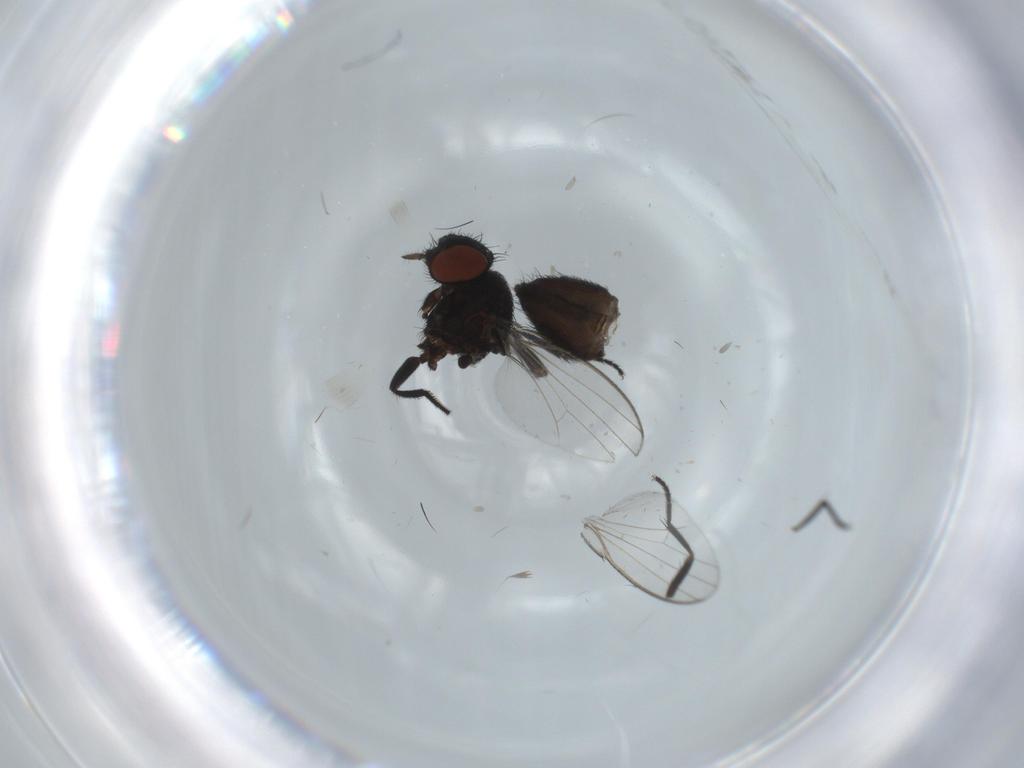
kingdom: Animalia
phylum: Arthropoda
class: Insecta
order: Diptera
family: Milichiidae
